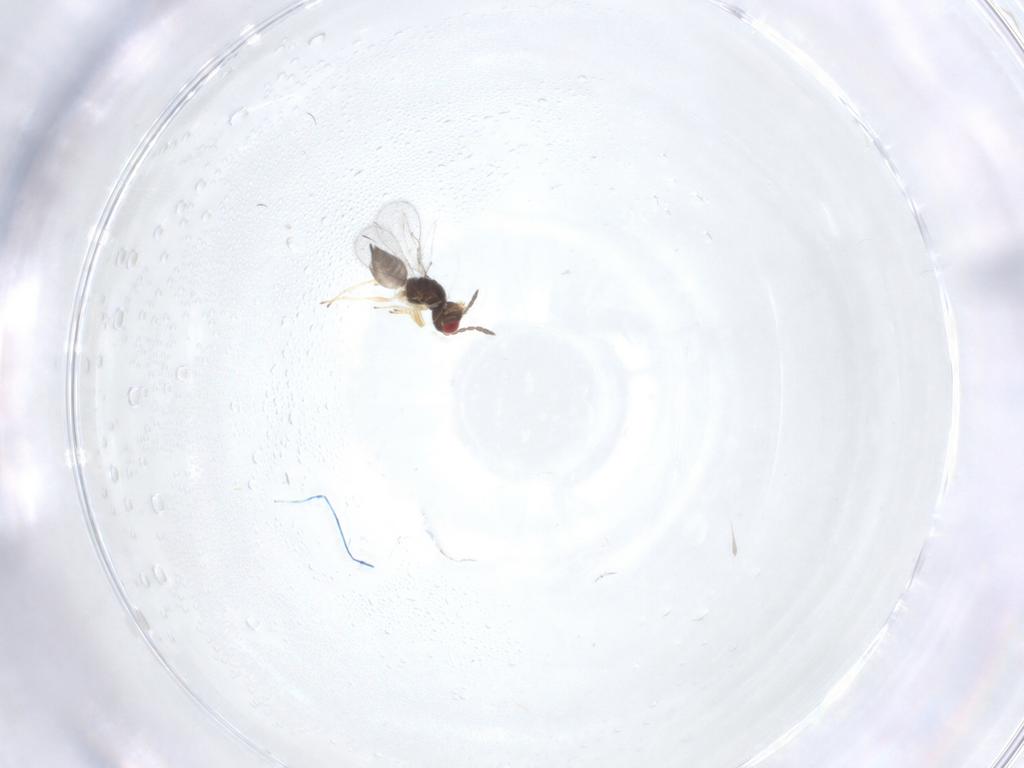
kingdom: Animalia
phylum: Arthropoda
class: Insecta
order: Hymenoptera
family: Eulophidae
